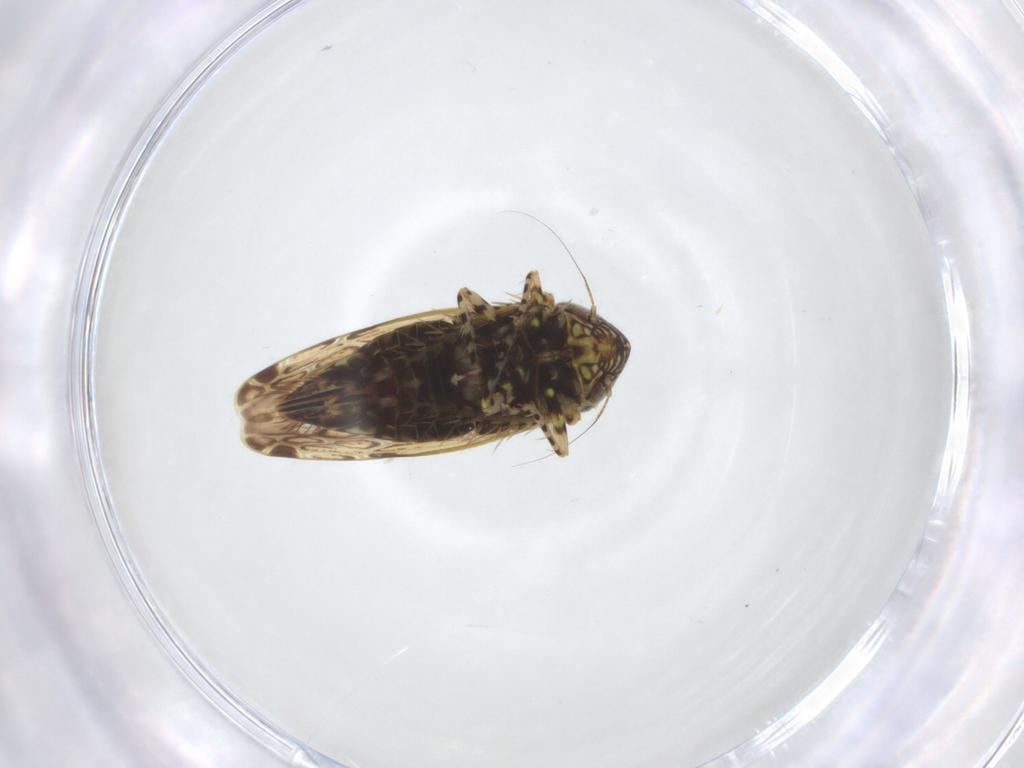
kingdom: Animalia
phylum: Arthropoda
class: Insecta
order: Hemiptera
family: Cicadellidae
